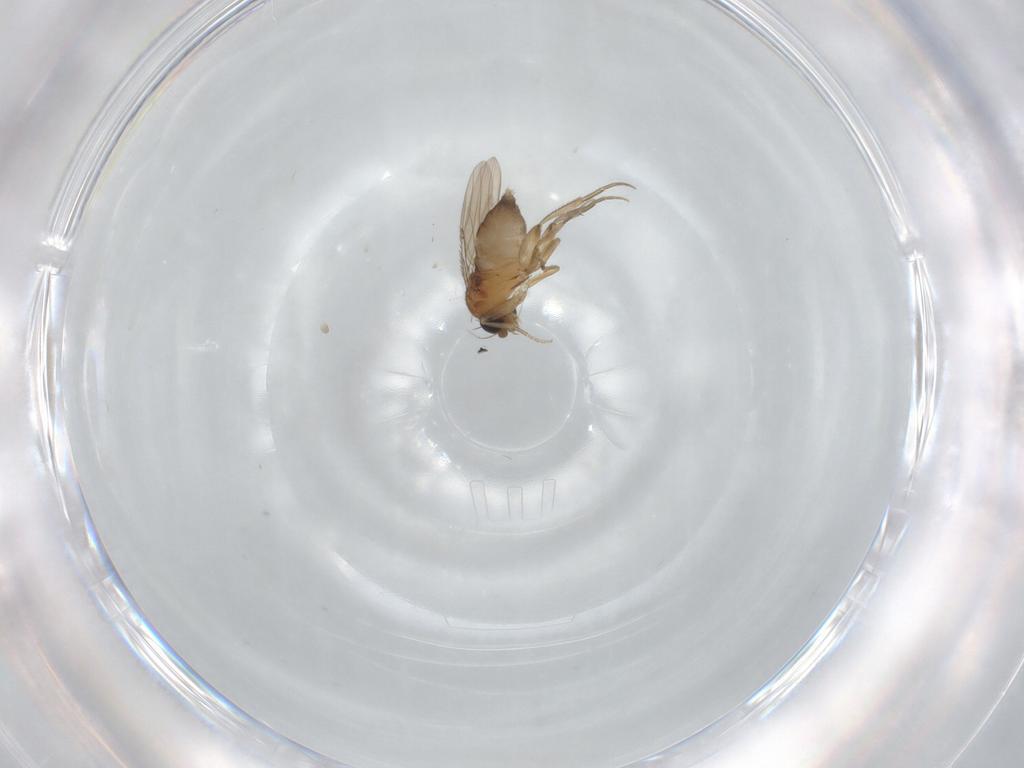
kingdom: Animalia
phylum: Arthropoda
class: Insecta
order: Diptera
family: Phoridae
